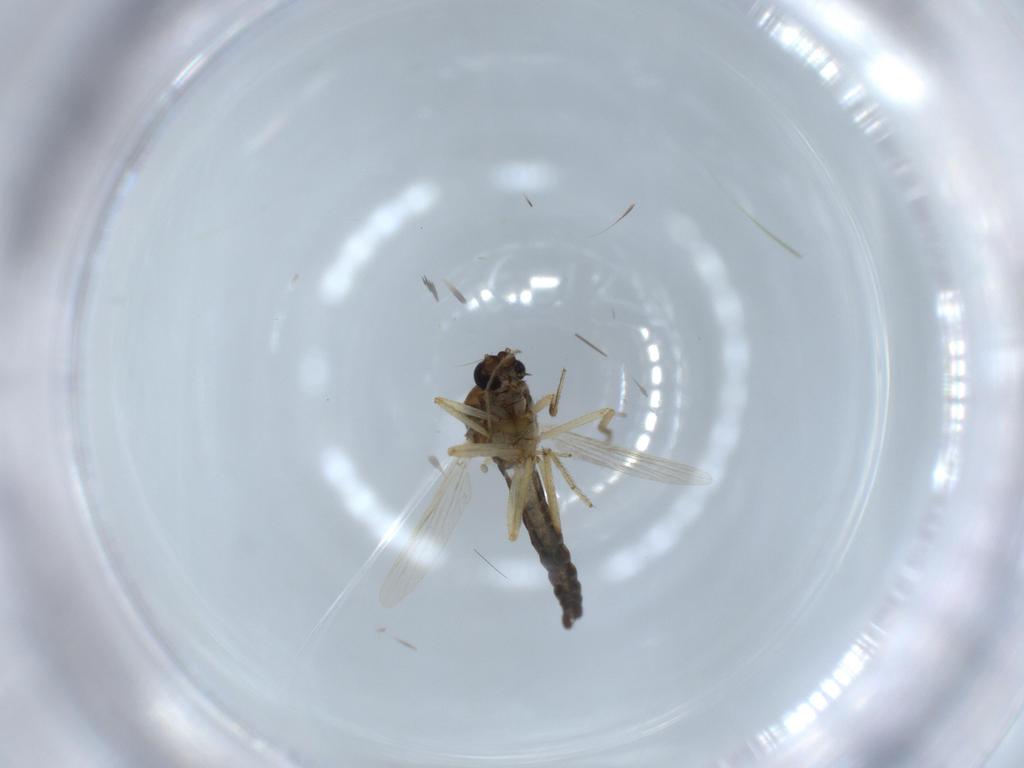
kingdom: Animalia
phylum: Arthropoda
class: Insecta
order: Diptera
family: Ceratopogonidae
